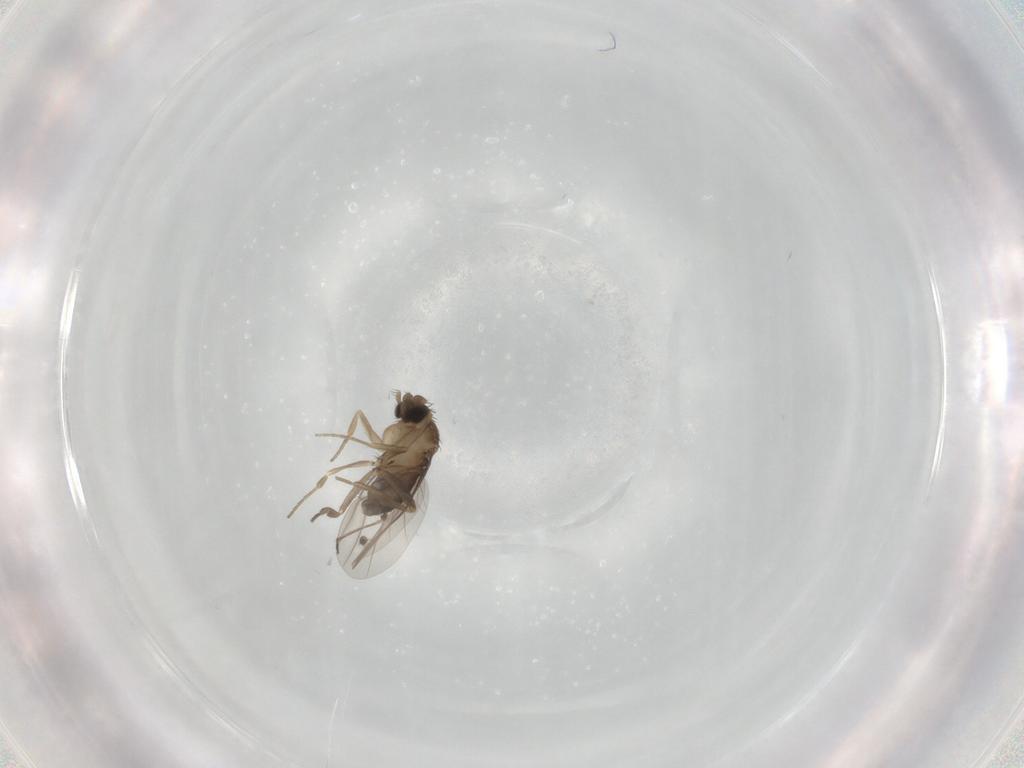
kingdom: Animalia
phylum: Arthropoda
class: Insecta
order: Diptera
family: Limoniidae
